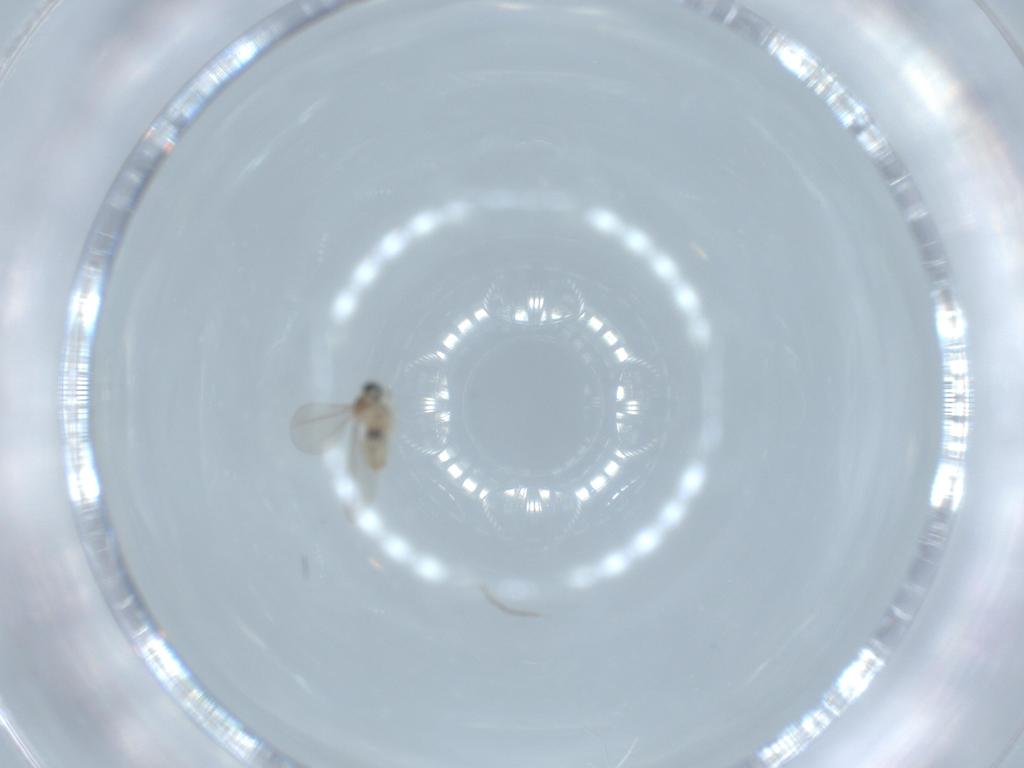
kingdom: Animalia
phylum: Arthropoda
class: Insecta
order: Diptera
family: Cecidomyiidae
